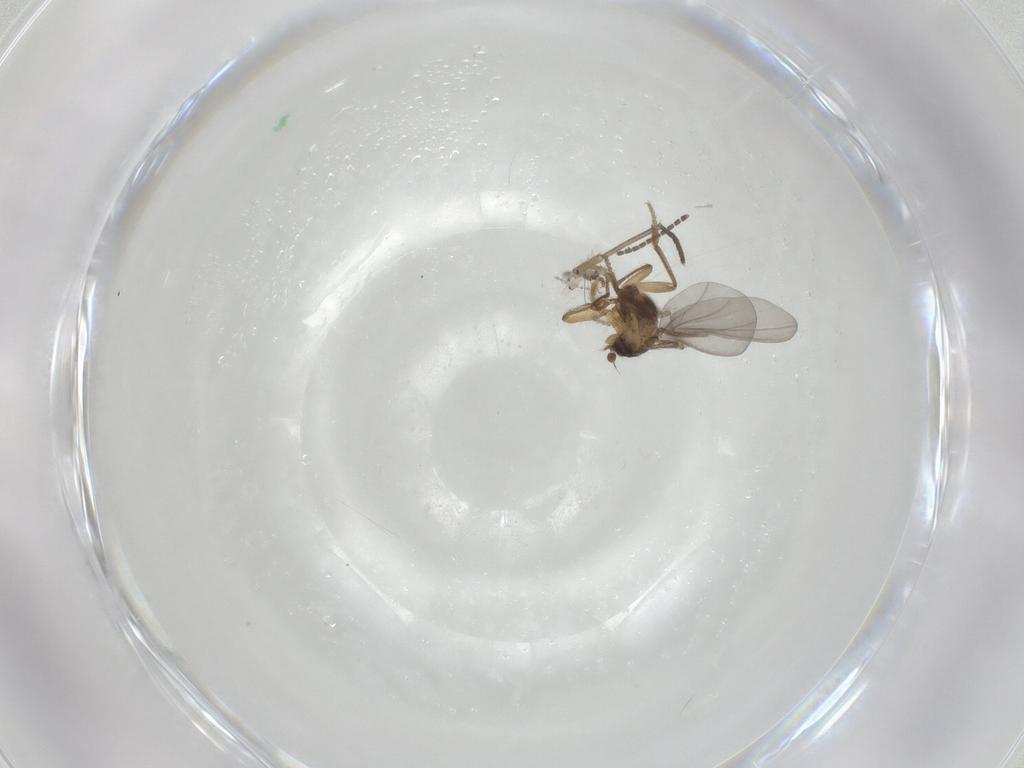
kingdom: Animalia
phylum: Arthropoda
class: Insecta
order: Diptera
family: Sciaridae
